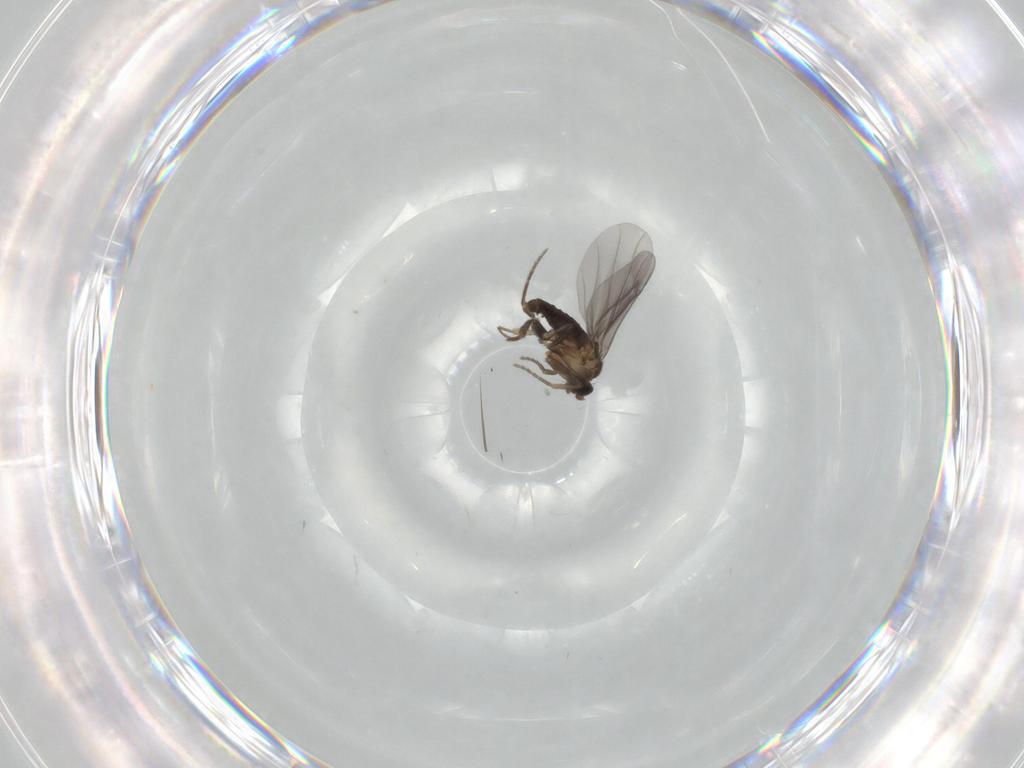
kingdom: Animalia
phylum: Arthropoda
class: Insecta
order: Diptera
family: Phoridae
